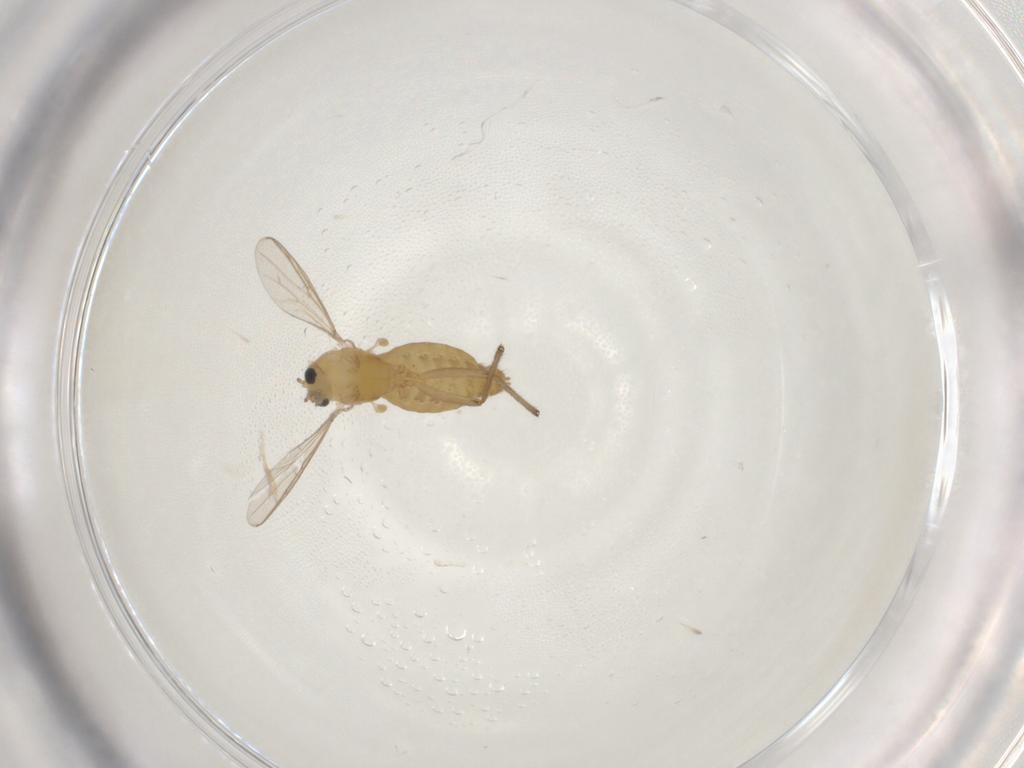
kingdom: Animalia
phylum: Arthropoda
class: Insecta
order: Diptera
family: Chironomidae
